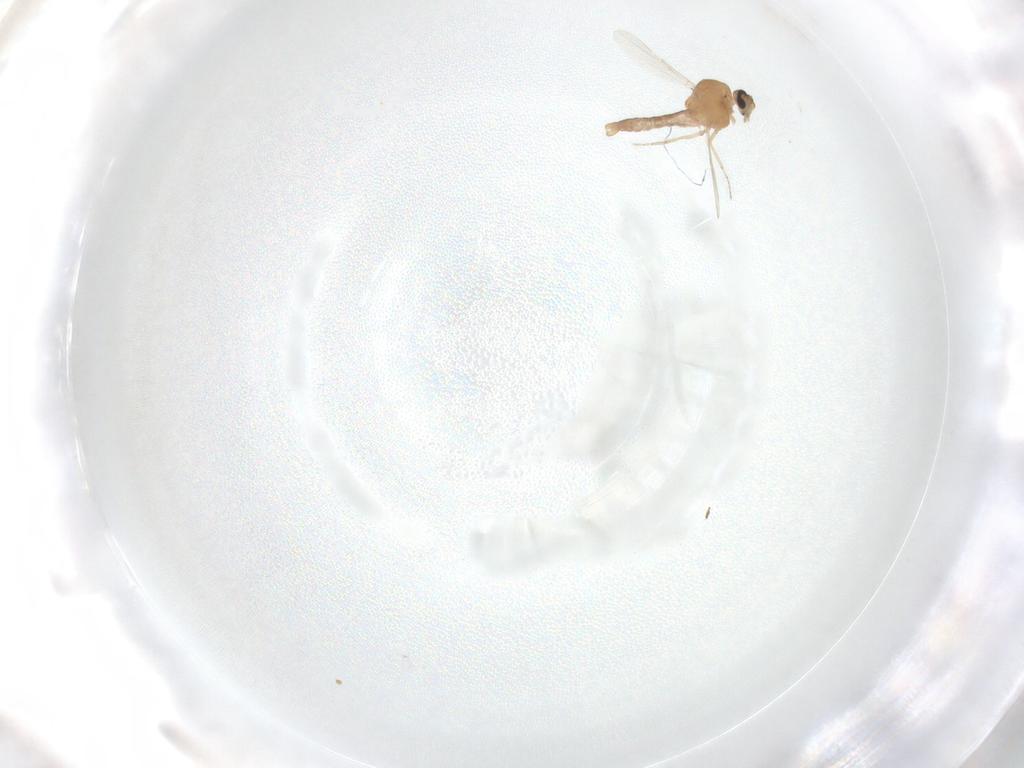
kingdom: Animalia
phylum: Arthropoda
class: Insecta
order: Diptera
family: Ceratopogonidae
